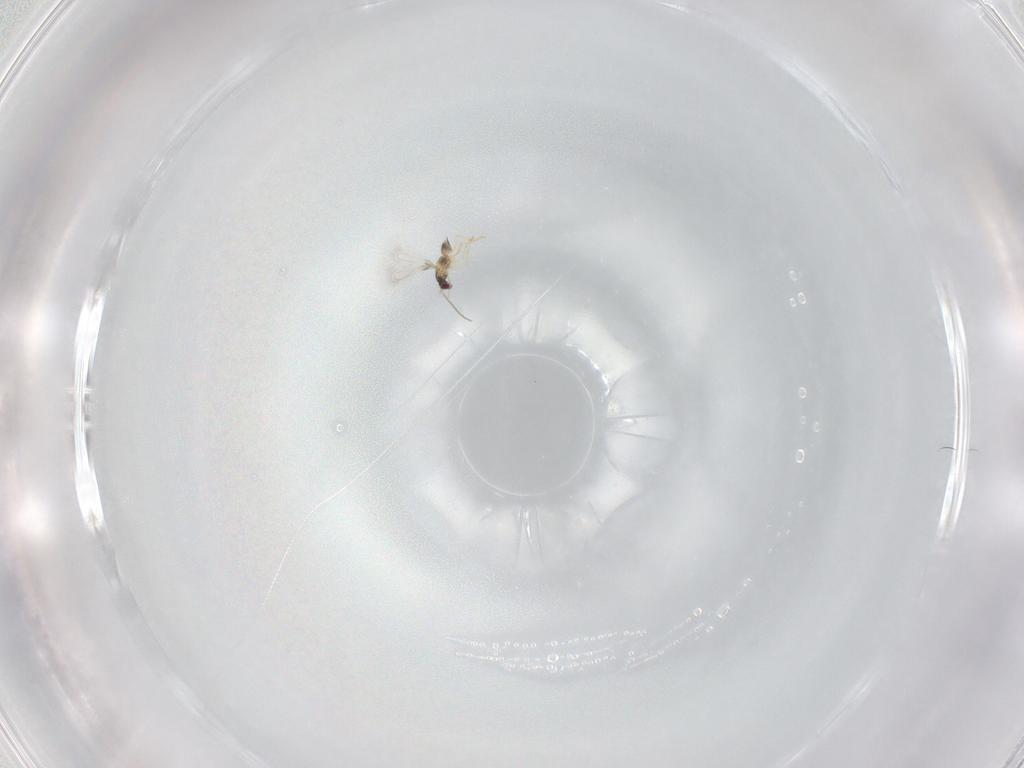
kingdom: Animalia
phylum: Arthropoda
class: Insecta
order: Hymenoptera
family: Mymaridae
